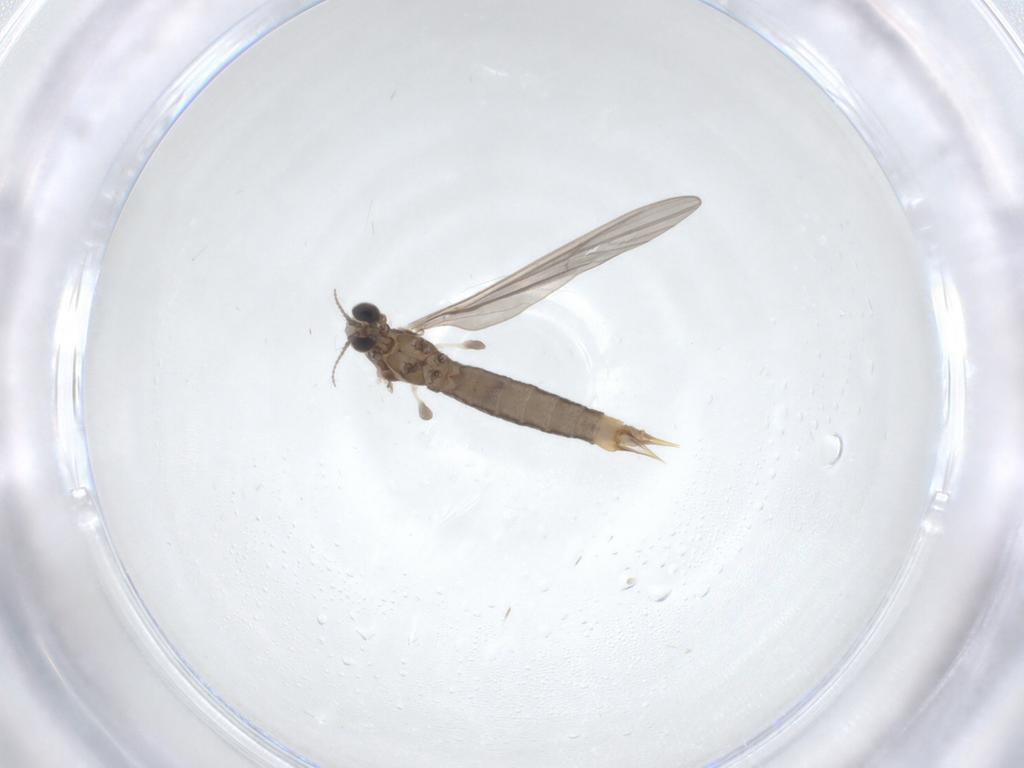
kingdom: Animalia
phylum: Arthropoda
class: Insecta
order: Diptera
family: Limoniidae
